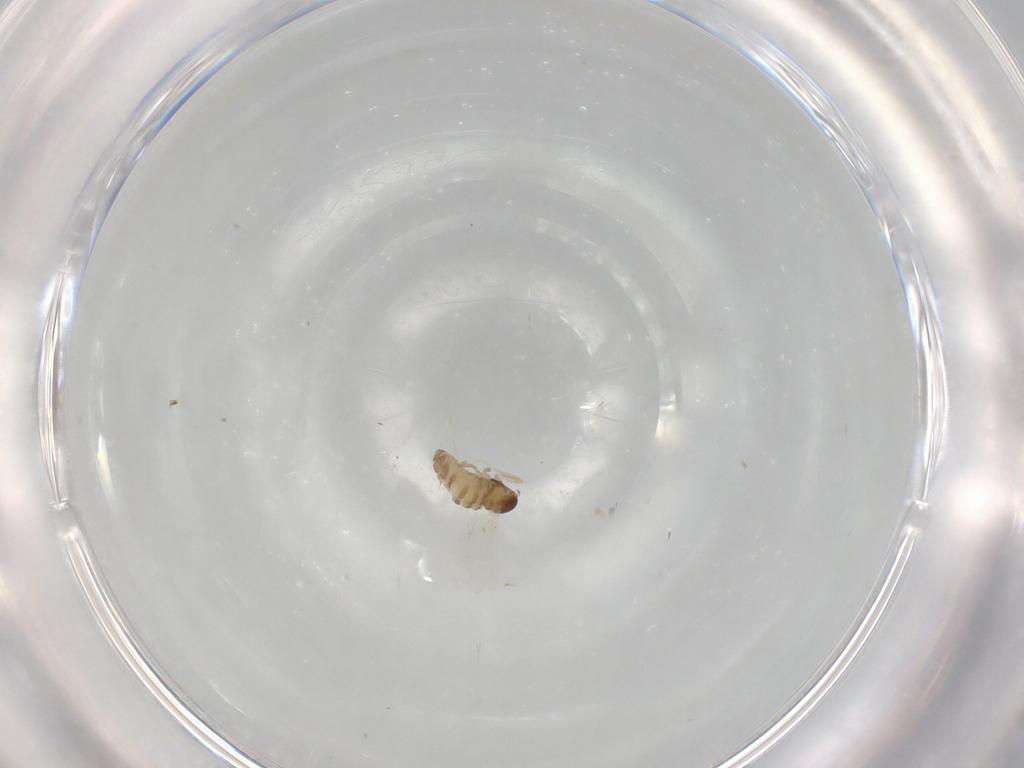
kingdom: Animalia
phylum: Arthropoda
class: Insecta
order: Diptera
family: Cecidomyiidae
